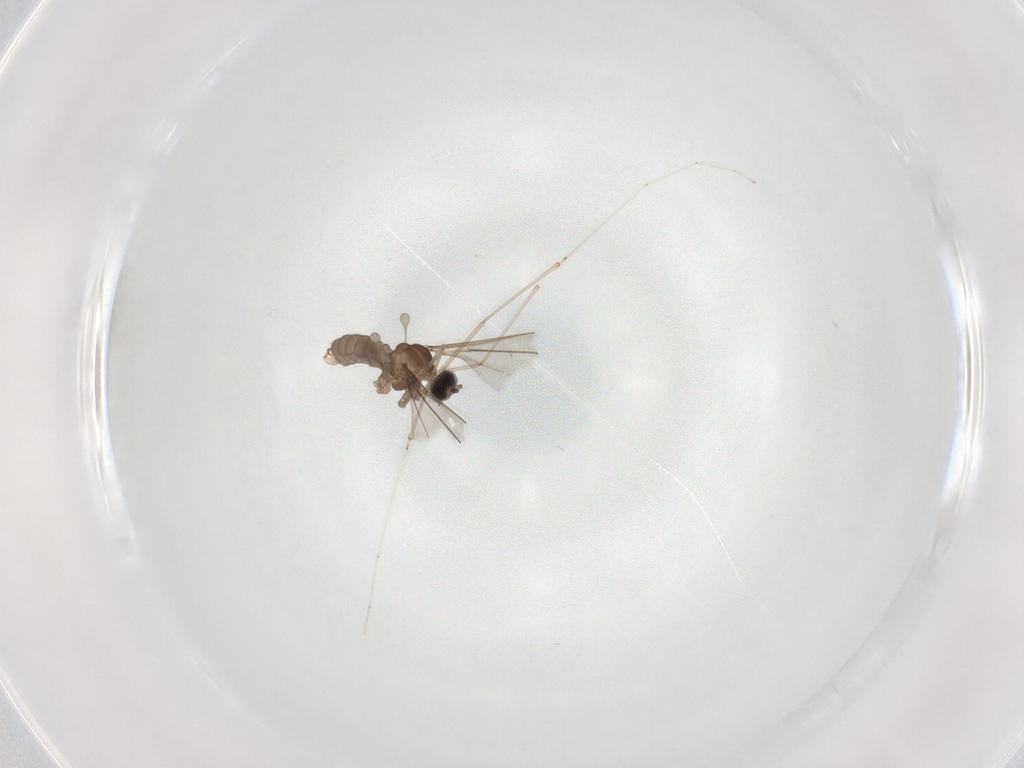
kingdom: Animalia
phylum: Arthropoda
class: Insecta
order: Diptera
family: Cecidomyiidae
